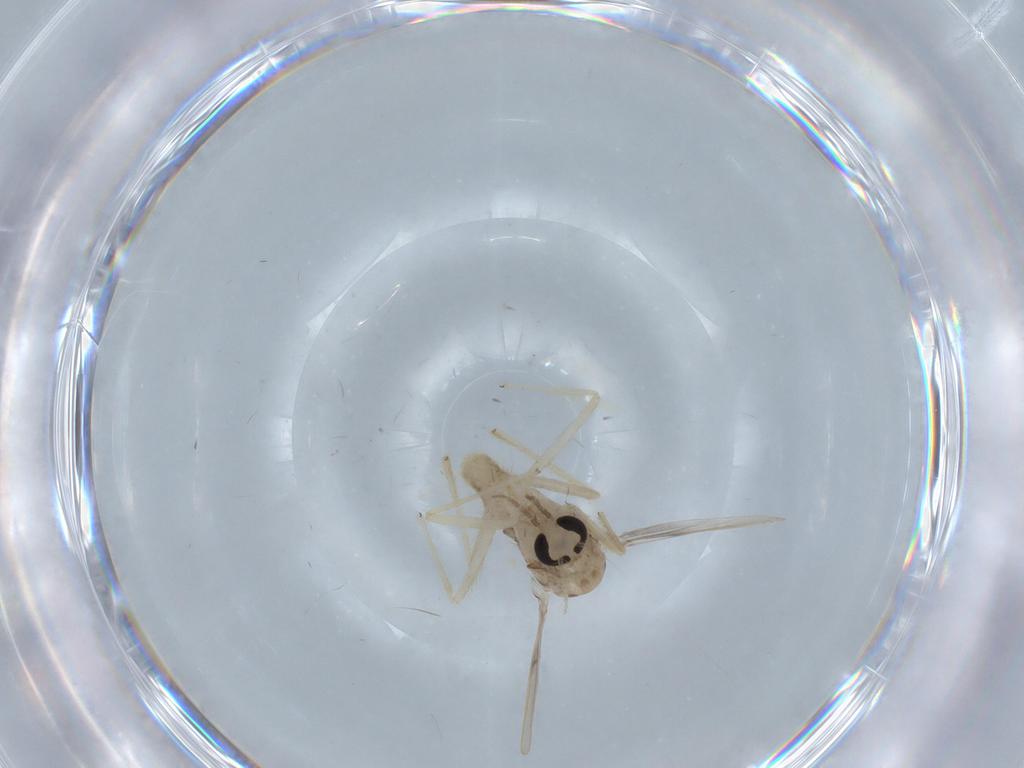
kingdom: Animalia
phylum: Arthropoda
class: Insecta
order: Diptera
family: Chironomidae
